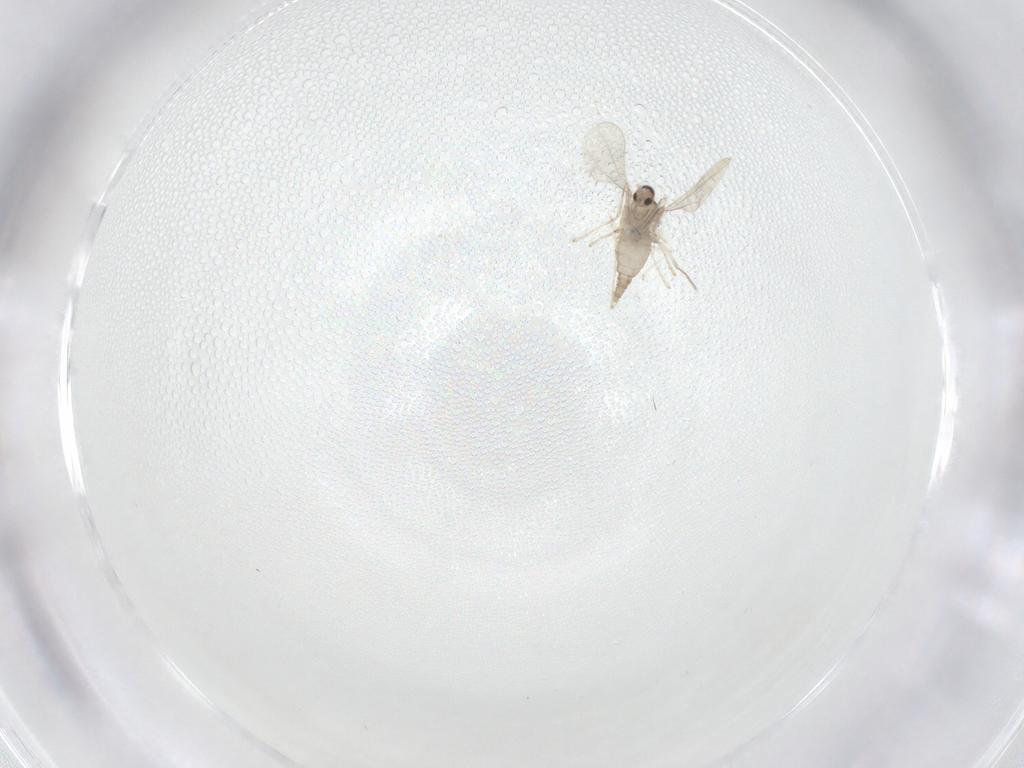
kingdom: Animalia
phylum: Arthropoda
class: Insecta
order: Diptera
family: Cecidomyiidae
